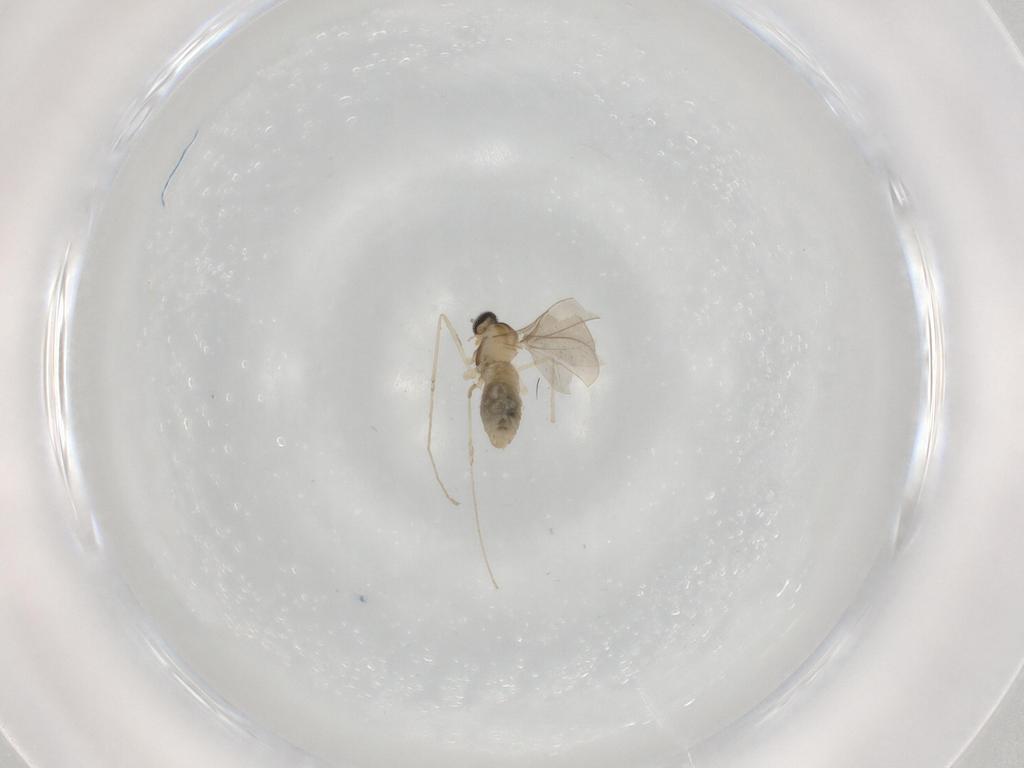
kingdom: Animalia
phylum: Arthropoda
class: Insecta
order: Diptera
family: Cecidomyiidae
